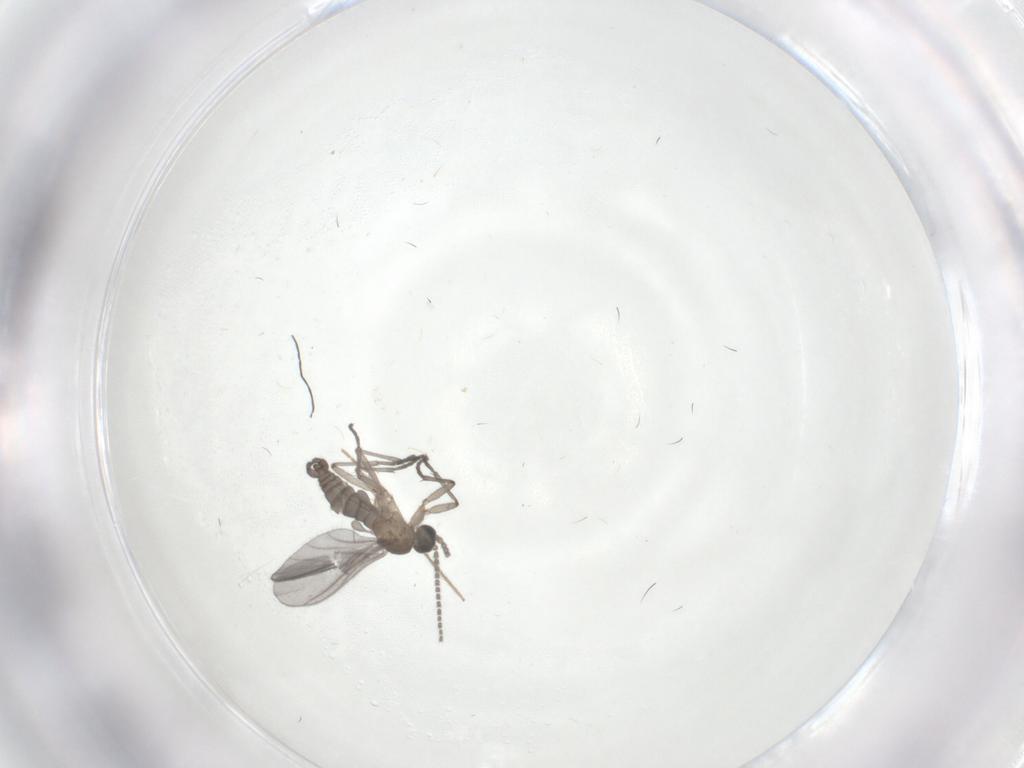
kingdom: Animalia
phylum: Arthropoda
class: Insecta
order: Diptera
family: Sciaridae
